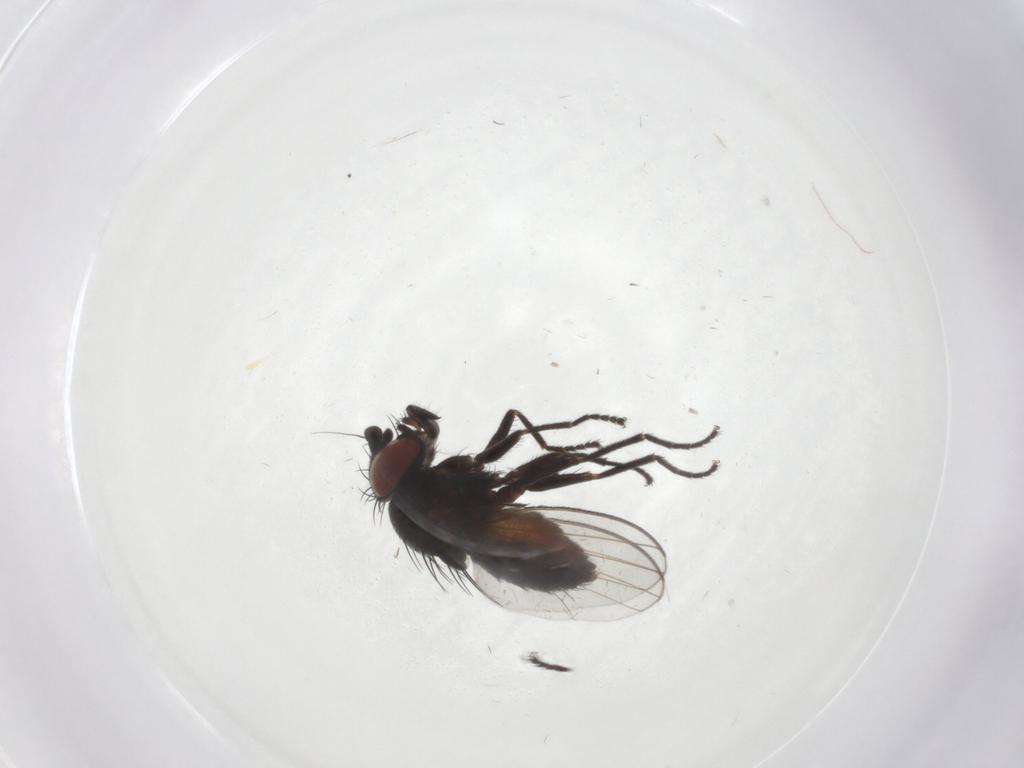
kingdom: Animalia
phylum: Arthropoda
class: Insecta
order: Diptera
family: Milichiidae
